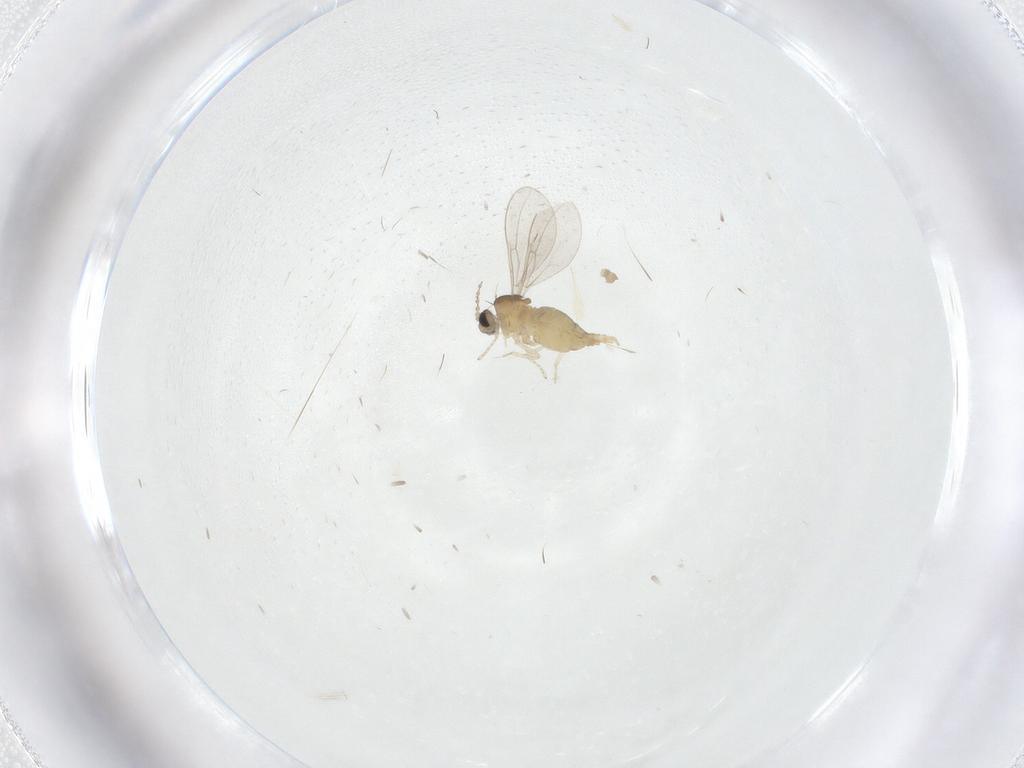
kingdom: Animalia
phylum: Arthropoda
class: Insecta
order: Diptera
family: Chironomidae
